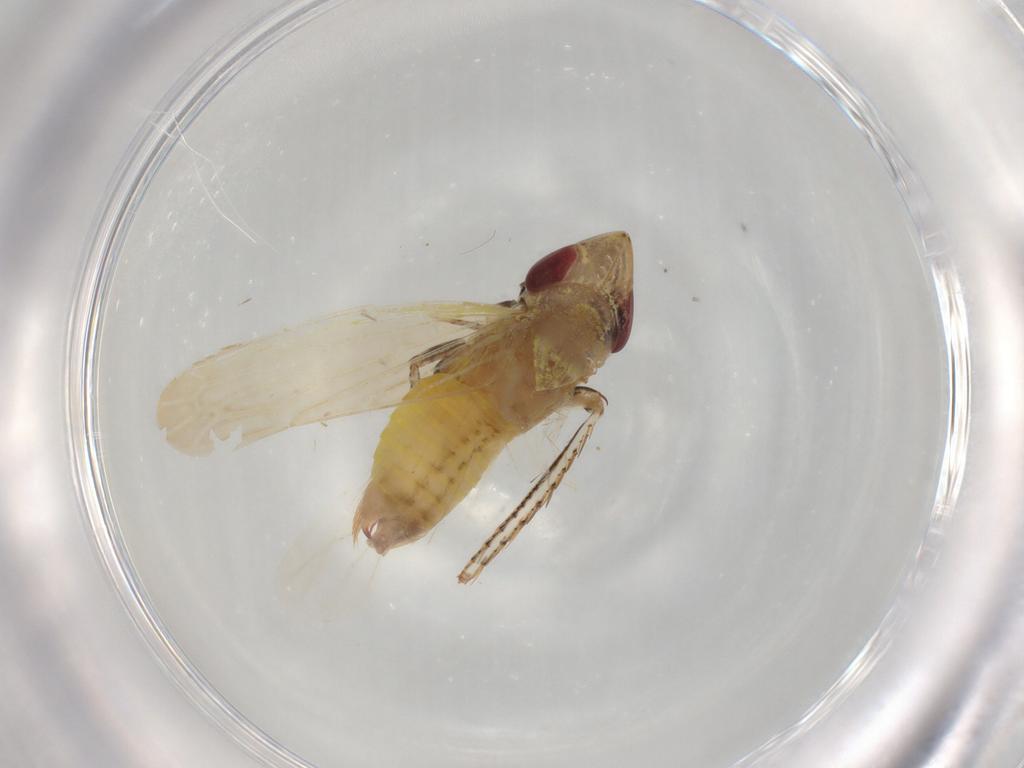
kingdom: Animalia
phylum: Arthropoda
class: Insecta
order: Hemiptera
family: Cicadellidae
